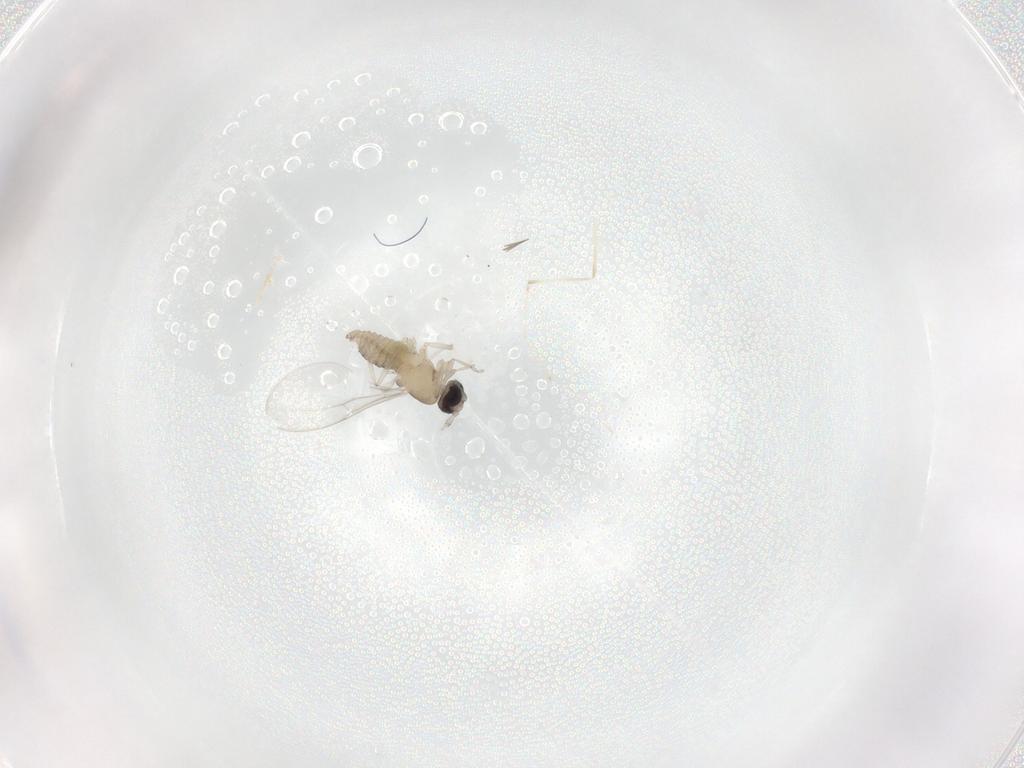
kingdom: Animalia
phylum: Arthropoda
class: Insecta
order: Diptera
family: Cecidomyiidae
